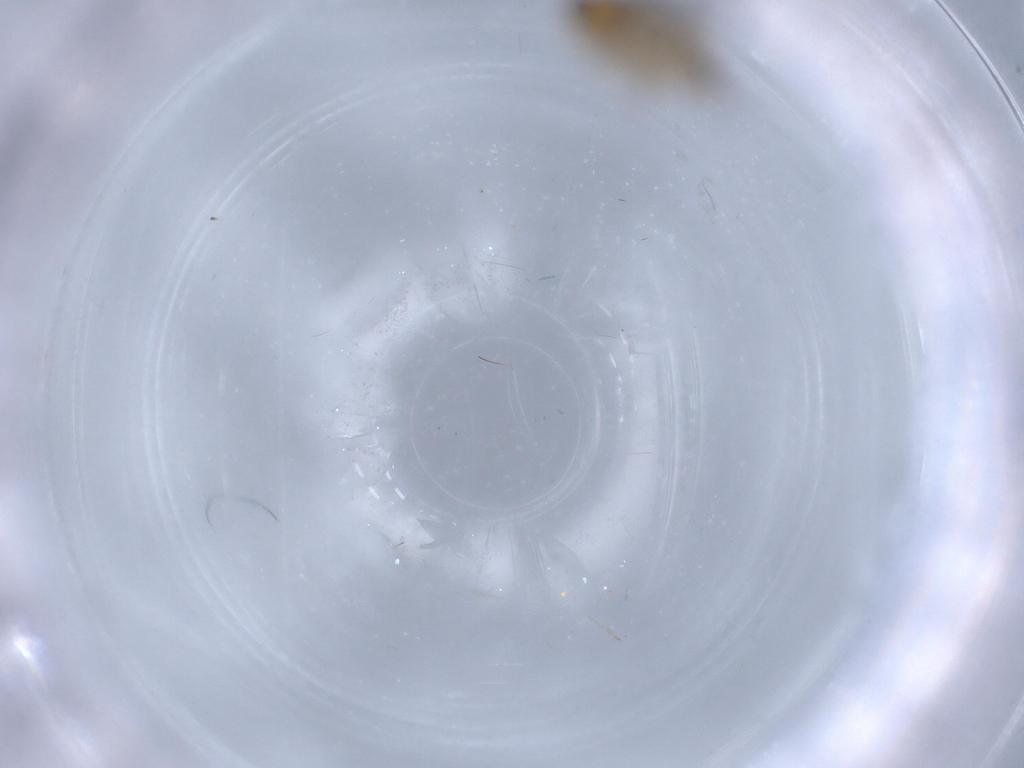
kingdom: Animalia
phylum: Arthropoda
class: Insecta
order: Diptera
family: Hybotidae
